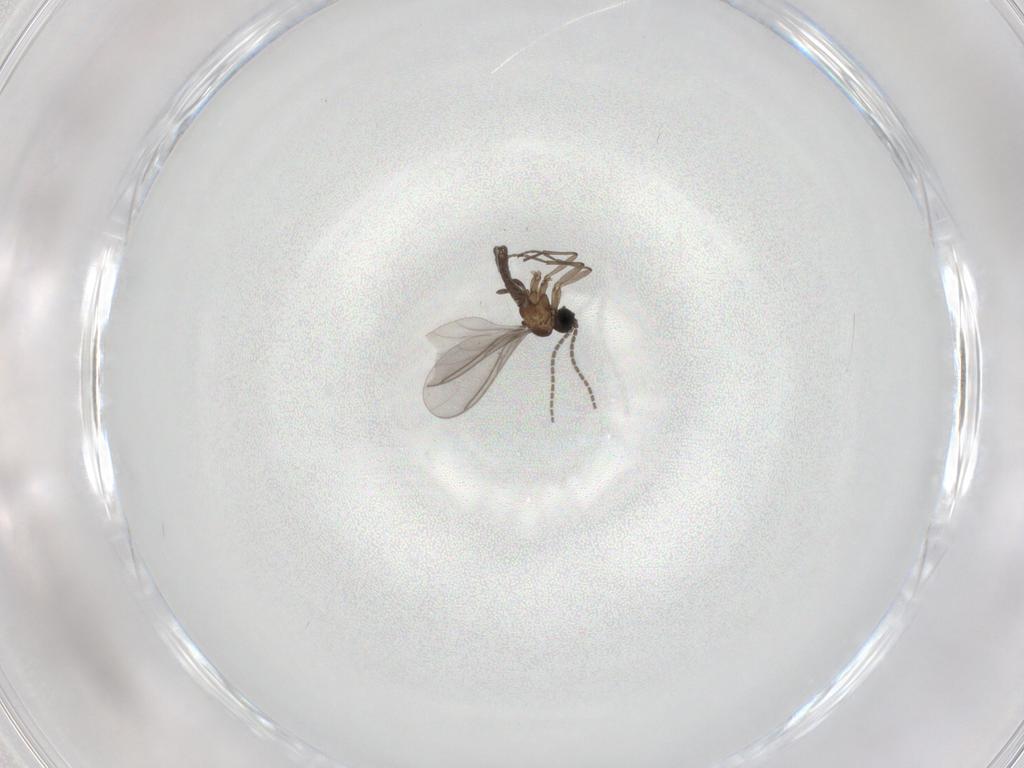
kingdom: Animalia
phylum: Arthropoda
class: Insecta
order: Diptera
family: Sciaridae
